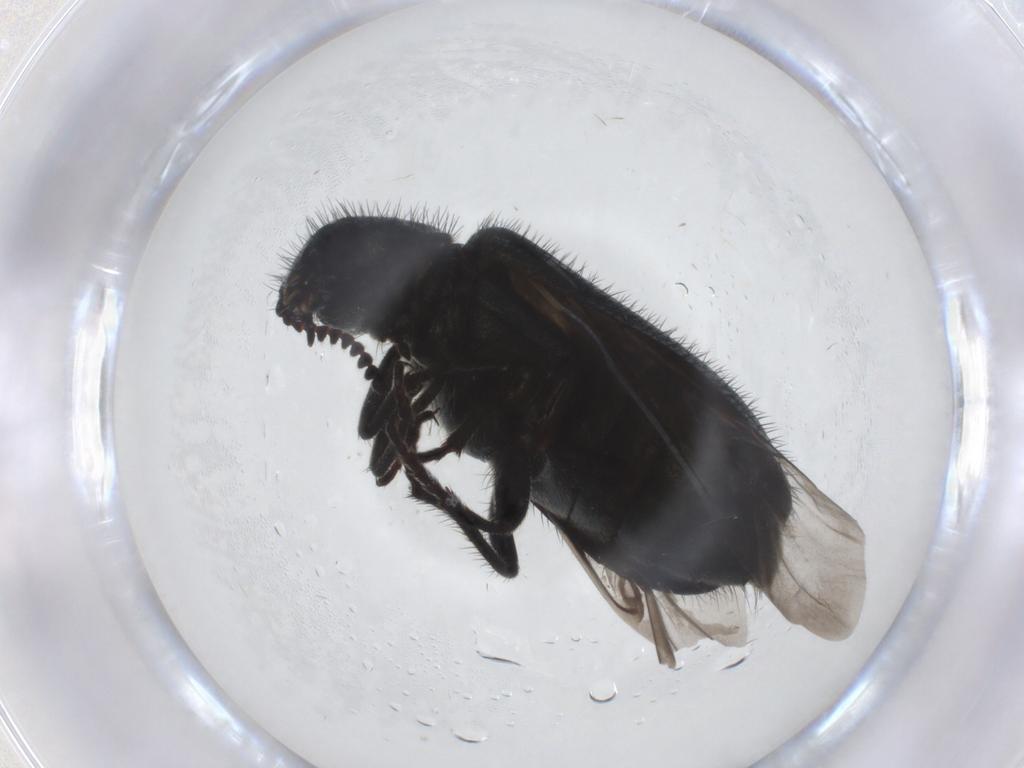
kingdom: Animalia
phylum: Arthropoda
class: Insecta
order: Coleoptera
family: Melyridae
